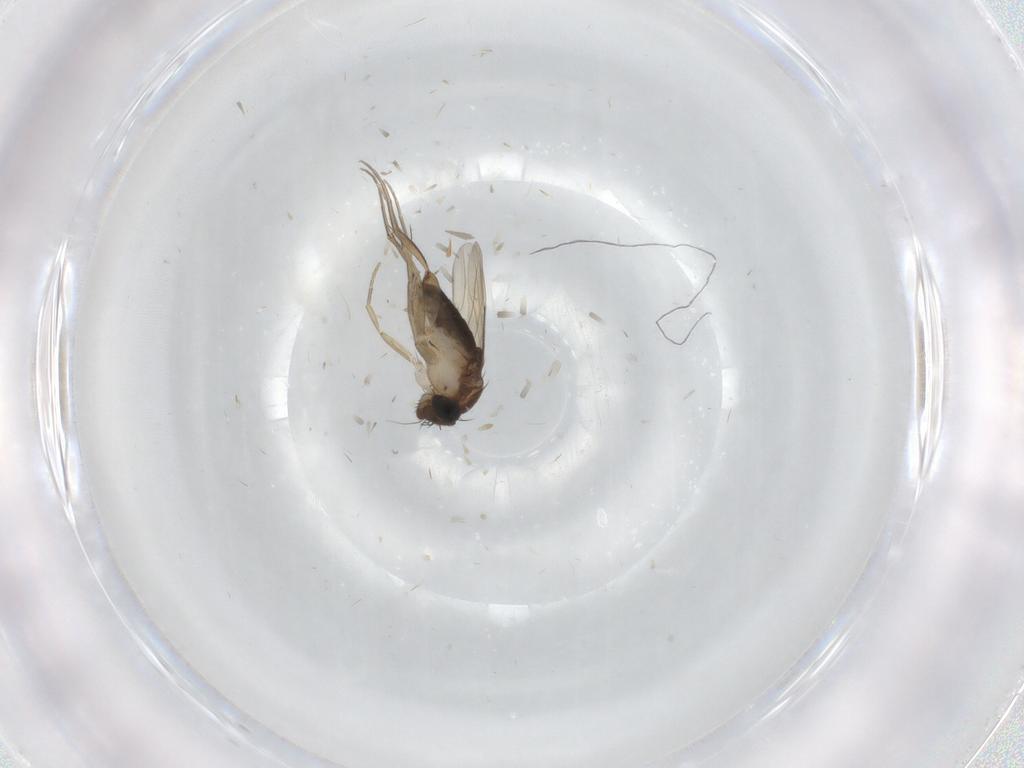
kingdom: Animalia
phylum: Arthropoda
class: Insecta
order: Diptera
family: Phoridae
